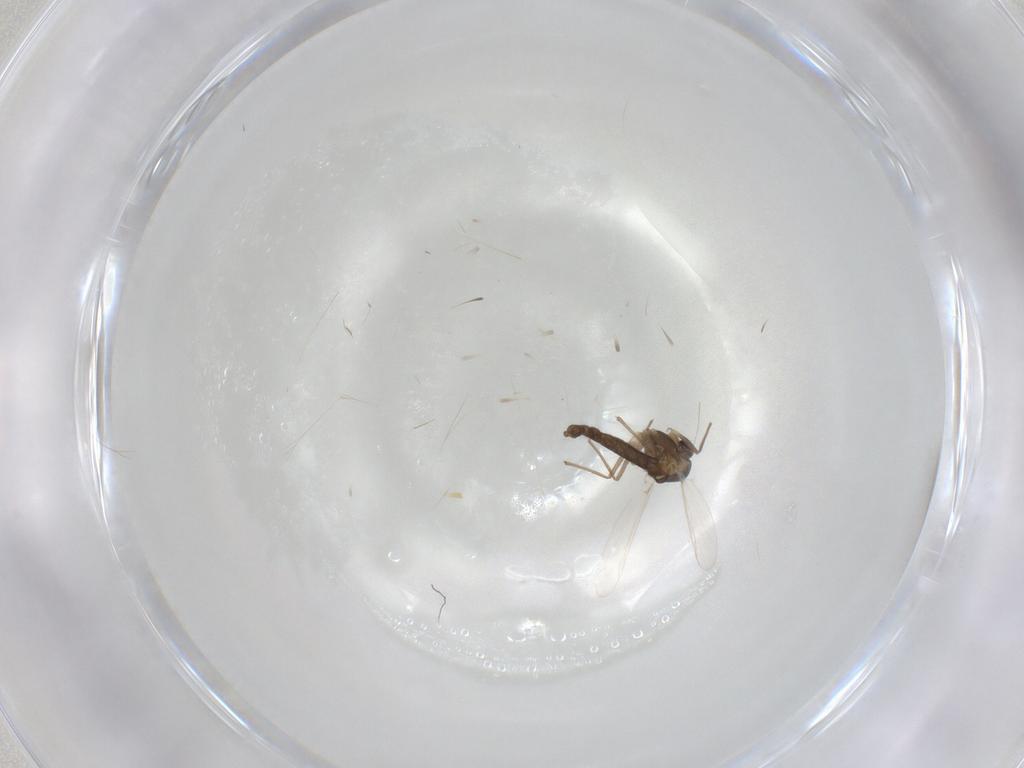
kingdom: Animalia
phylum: Arthropoda
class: Insecta
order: Diptera
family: Chironomidae
